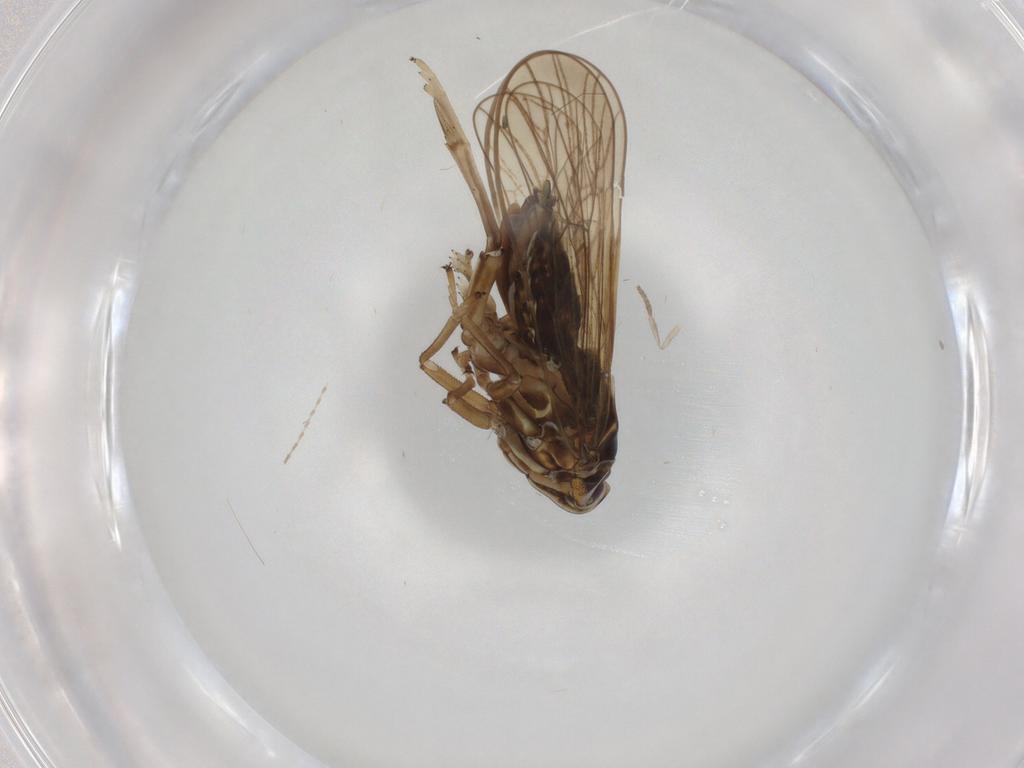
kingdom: Animalia
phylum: Arthropoda
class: Insecta
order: Hemiptera
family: Delphacidae
